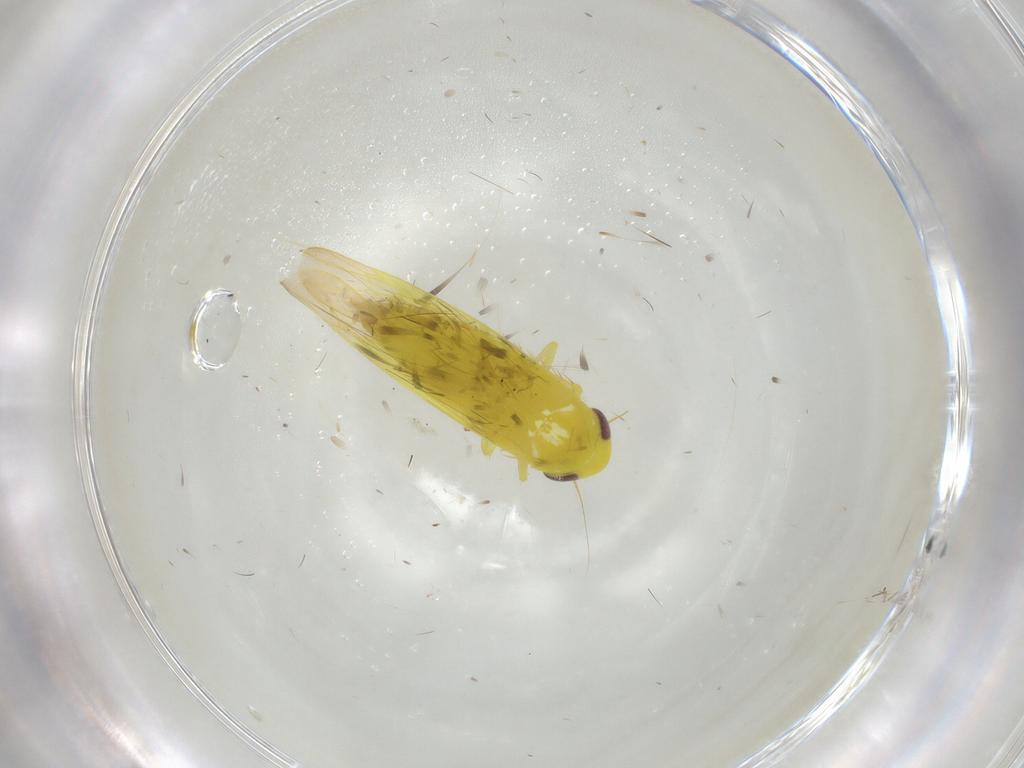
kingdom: Animalia
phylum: Arthropoda
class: Insecta
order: Hemiptera
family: Cicadellidae
